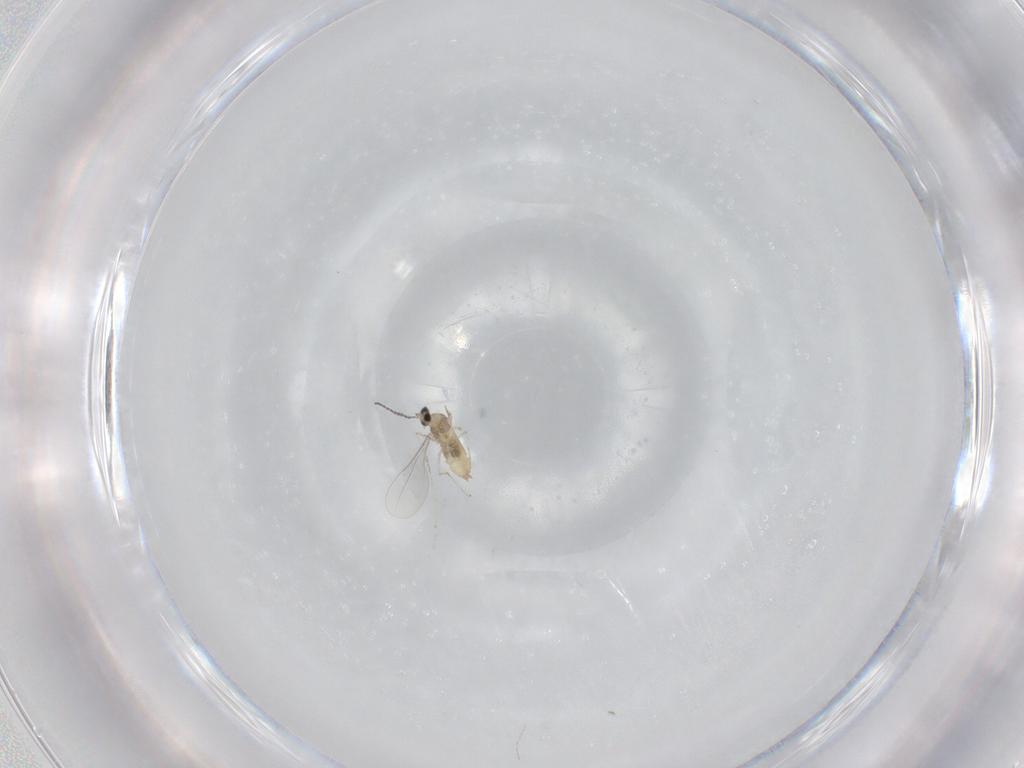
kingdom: Animalia
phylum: Arthropoda
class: Insecta
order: Diptera
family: Cecidomyiidae
